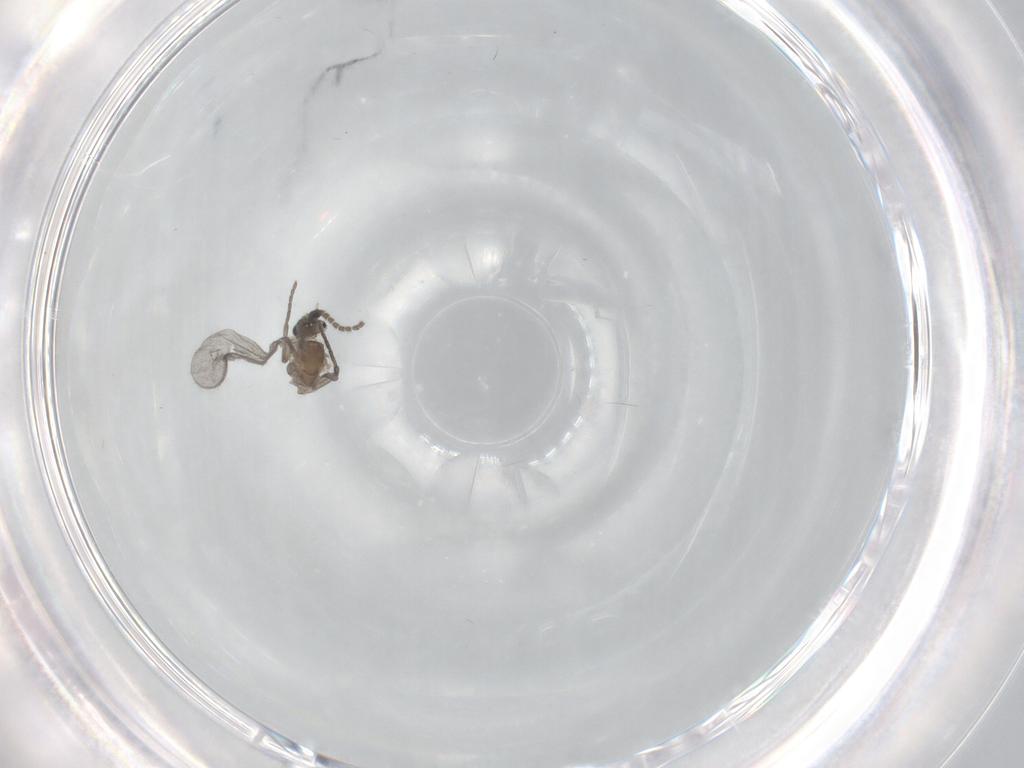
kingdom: Animalia
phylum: Arthropoda
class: Insecta
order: Diptera
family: Sciaridae
